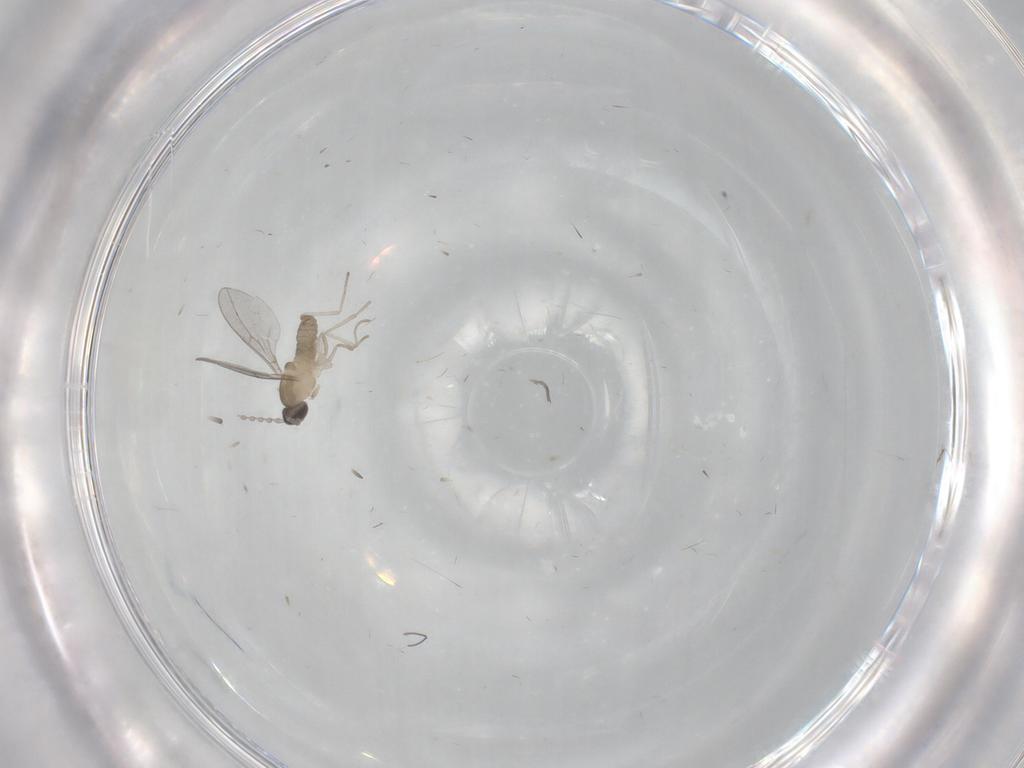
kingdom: Animalia
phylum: Arthropoda
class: Insecta
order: Diptera
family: Cecidomyiidae
